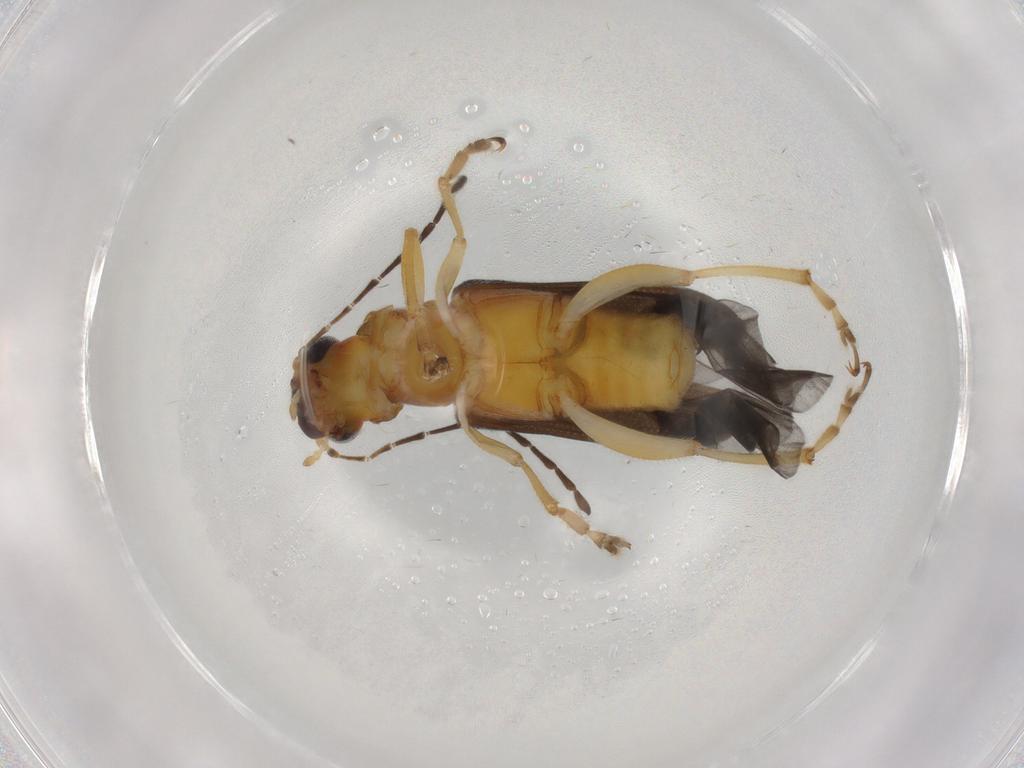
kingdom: Animalia
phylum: Arthropoda
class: Insecta
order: Coleoptera
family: Chrysomelidae
